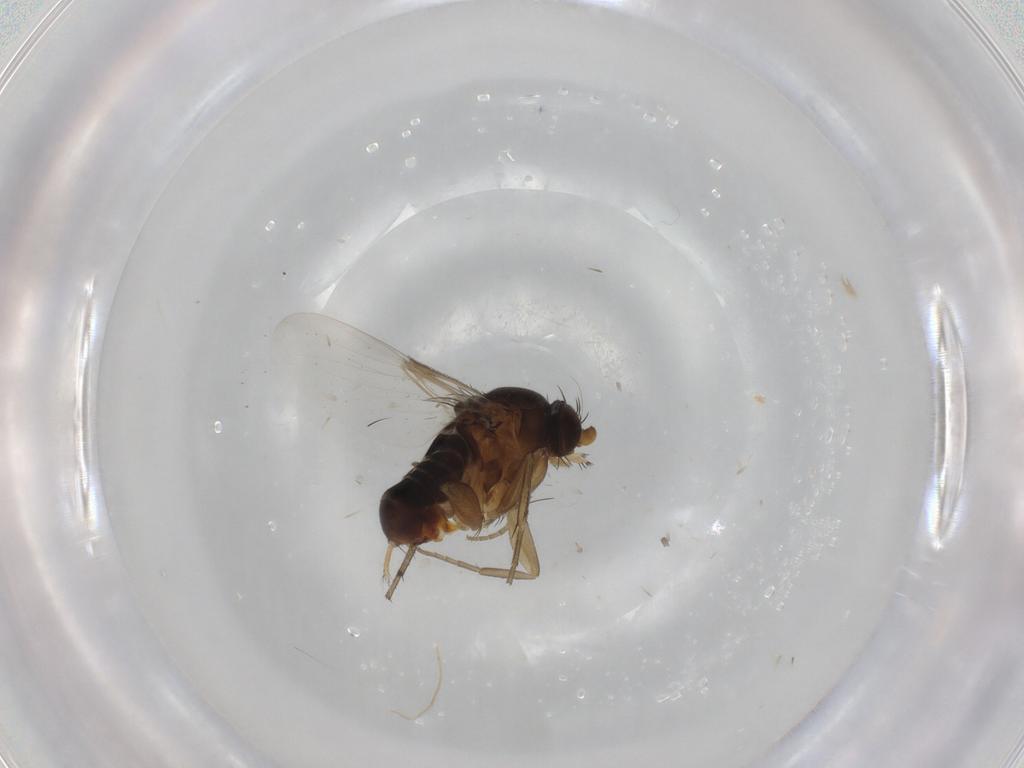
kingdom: Animalia
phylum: Arthropoda
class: Insecta
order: Diptera
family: Phoridae
